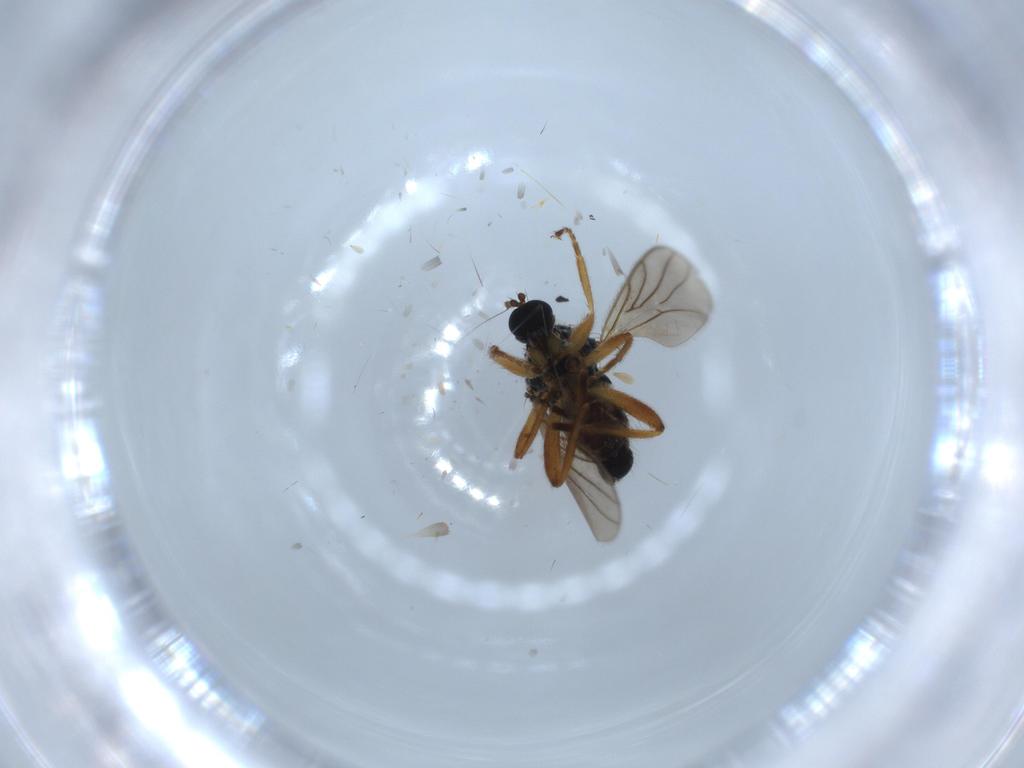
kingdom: Animalia
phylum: Arthropoda
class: Insecta
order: Diptera
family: Hybotidae
